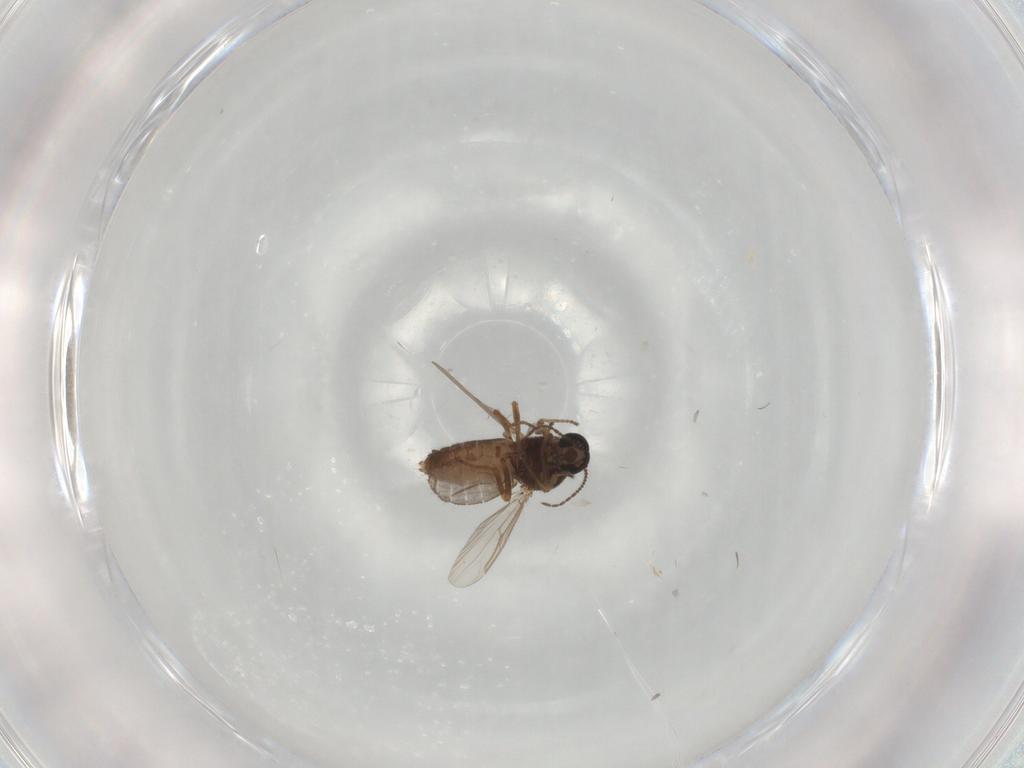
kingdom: Animalia
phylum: Arthropoda
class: Insecta
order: Diptera
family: Ceratopogonidae
